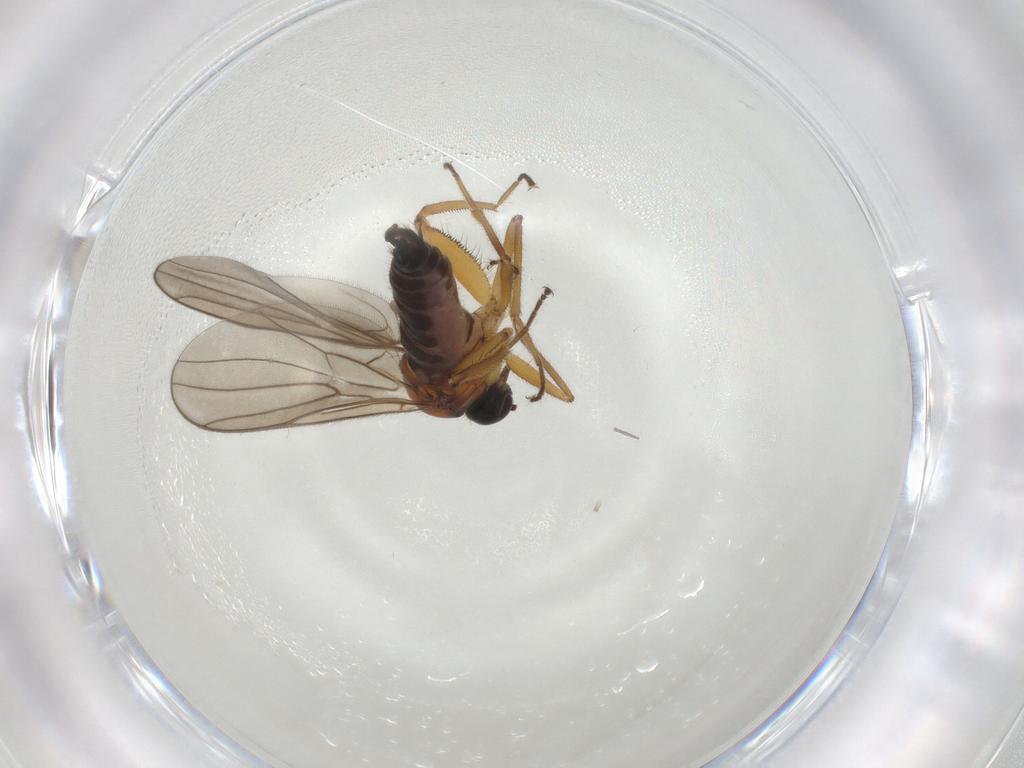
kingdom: Animalia
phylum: Arthropoda
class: Insecta
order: Diptera
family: Hybotidae
